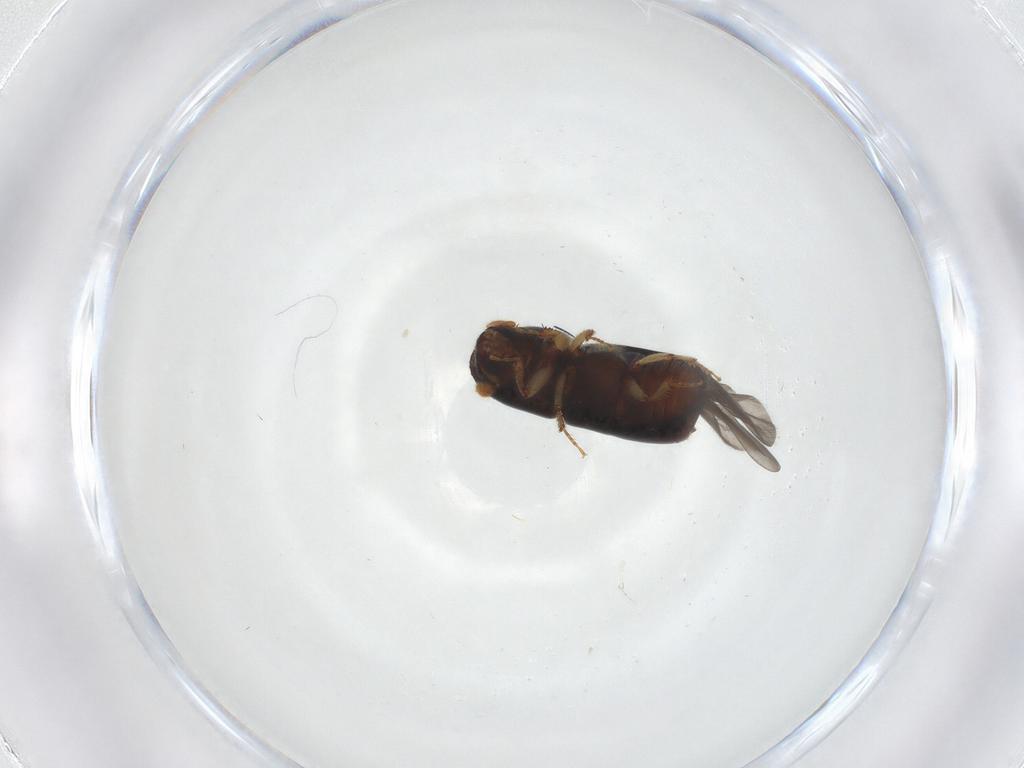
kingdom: Animalia
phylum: Arthropoda
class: Insecta
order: Coleoptera
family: Curculionidae
